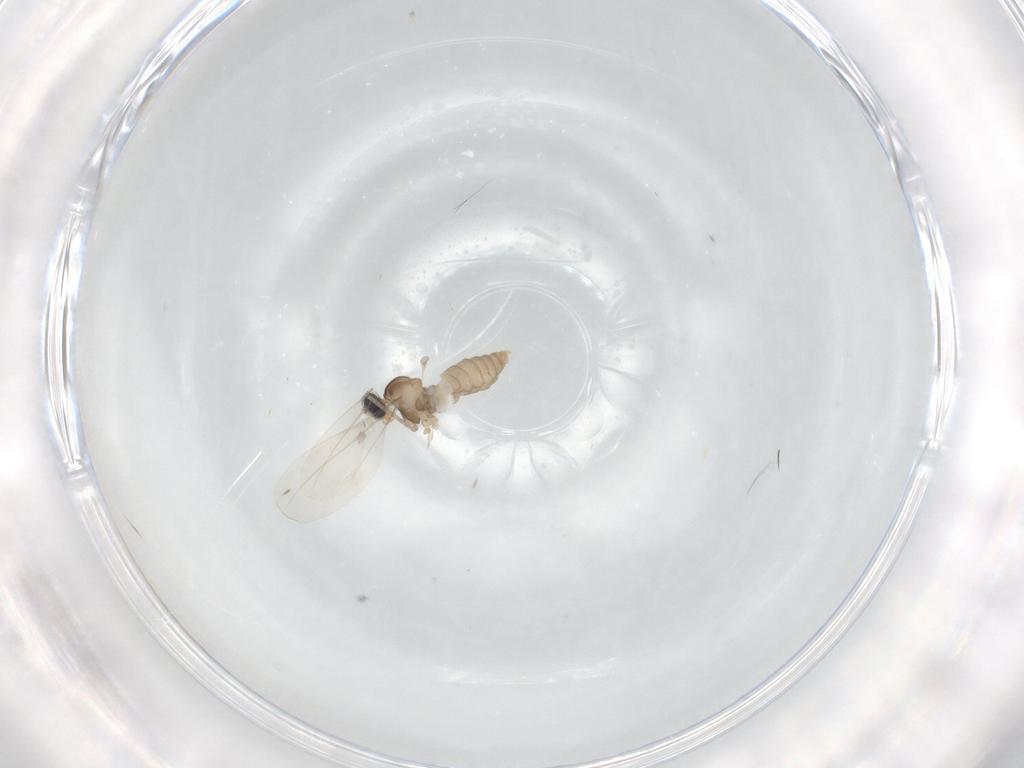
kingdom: Animalia
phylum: Arthropoda
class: Insecta
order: Diptera
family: Cecidomyiidae
